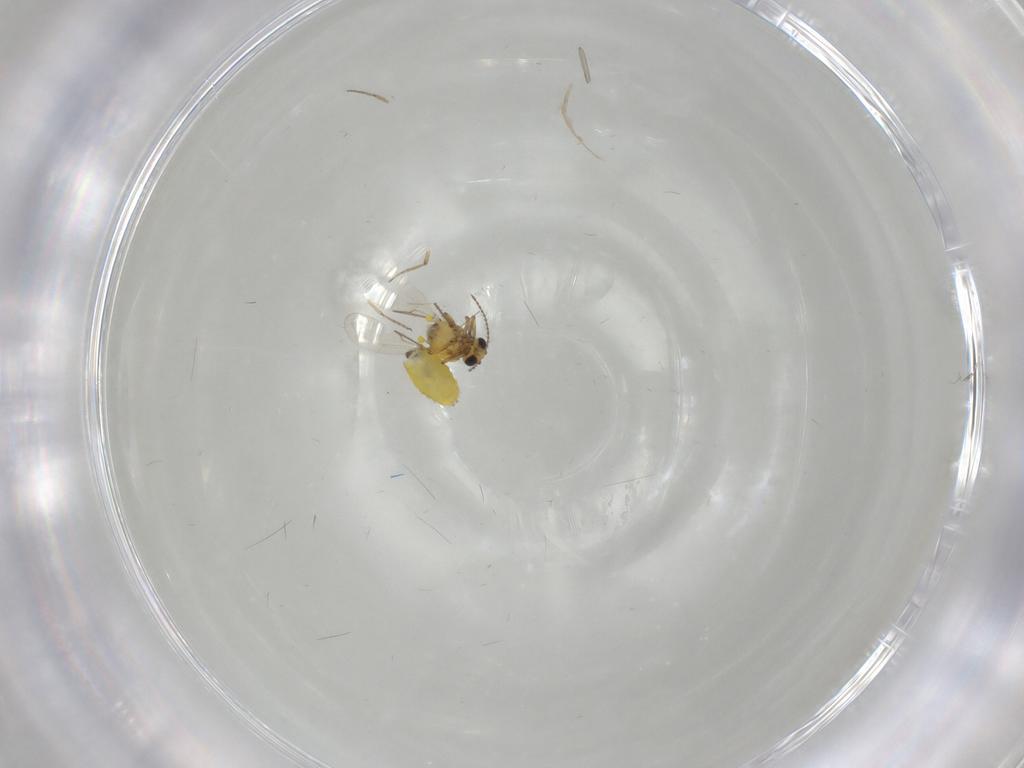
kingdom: Animalia
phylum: Arthropoda
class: Insecta
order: Diptera
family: Ceratopogonidae
